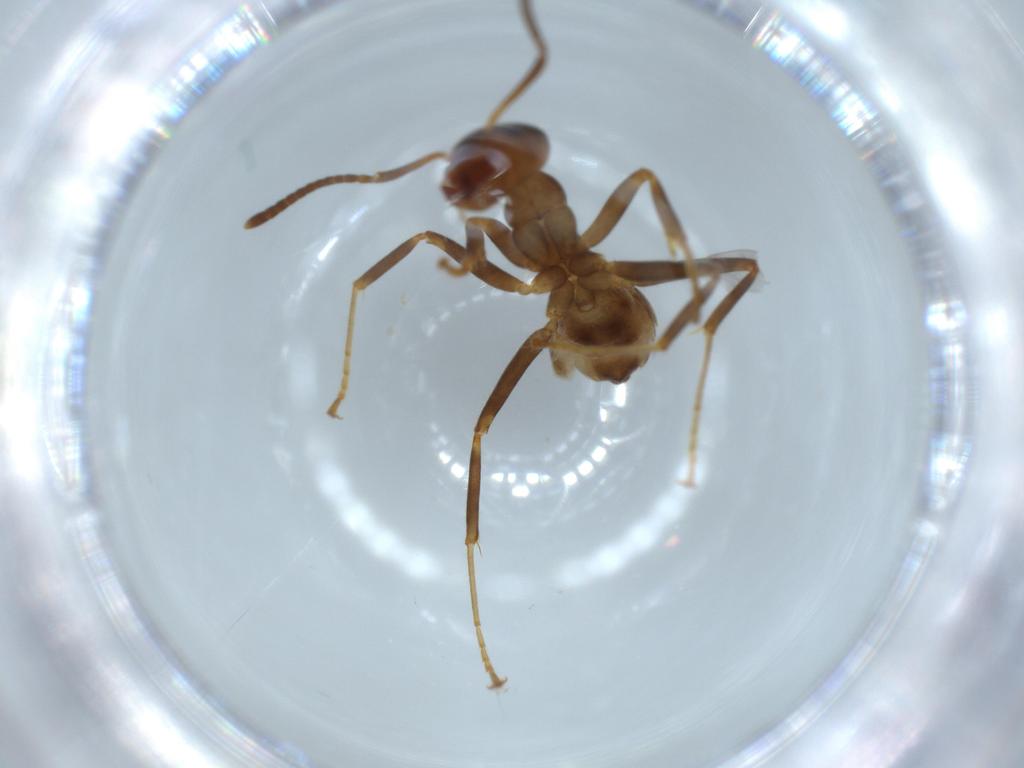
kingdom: Animalia
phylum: Arthropoda
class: Insecta
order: Hymenoptera
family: Formicidae
